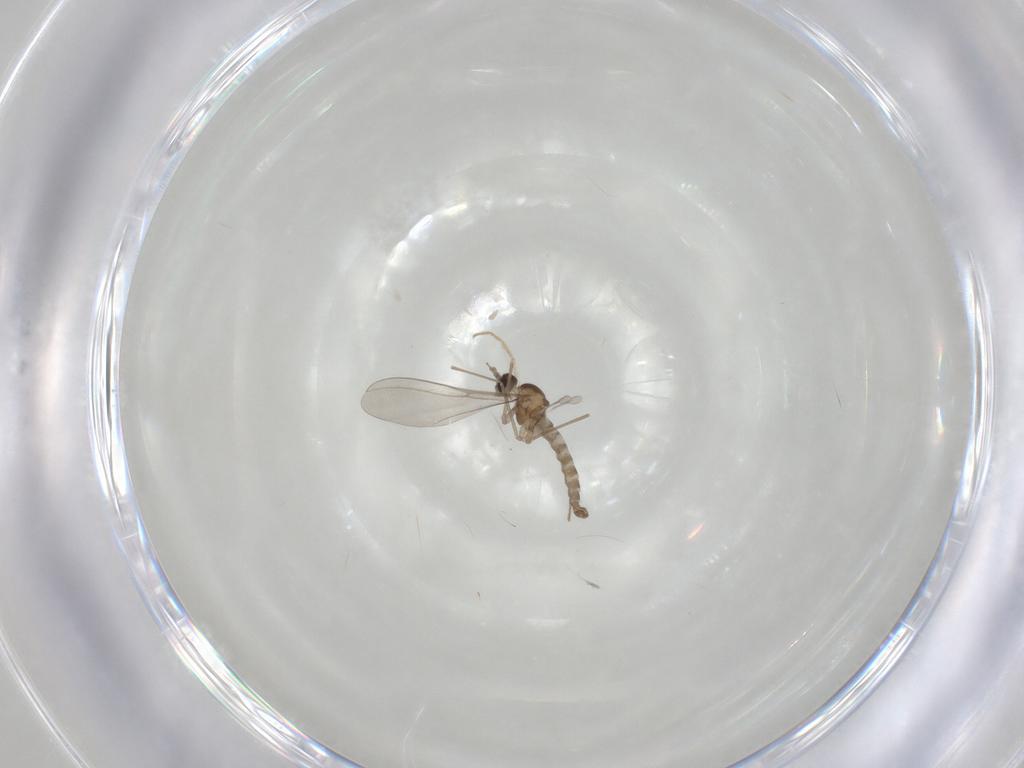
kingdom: Animalia
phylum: Arthropoda
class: Insecta
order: Diptera
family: Cecidomyiidae
